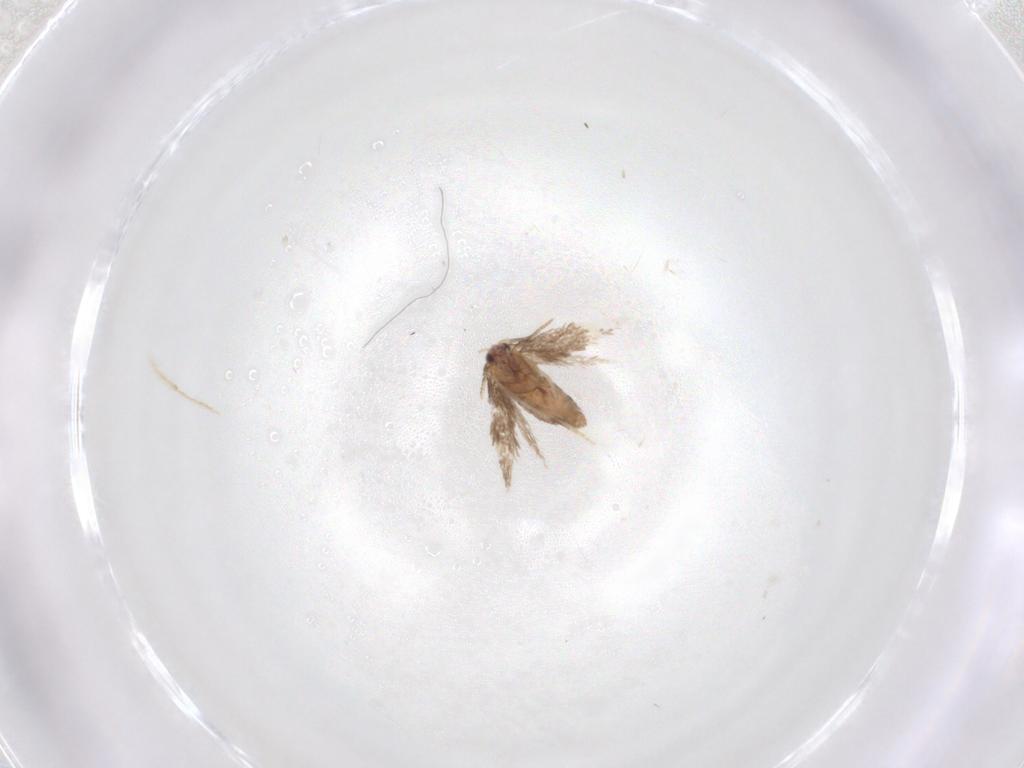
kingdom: Animalia
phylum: Arthropoda
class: Insecta
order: Lepidoptera
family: Nepticulidae
